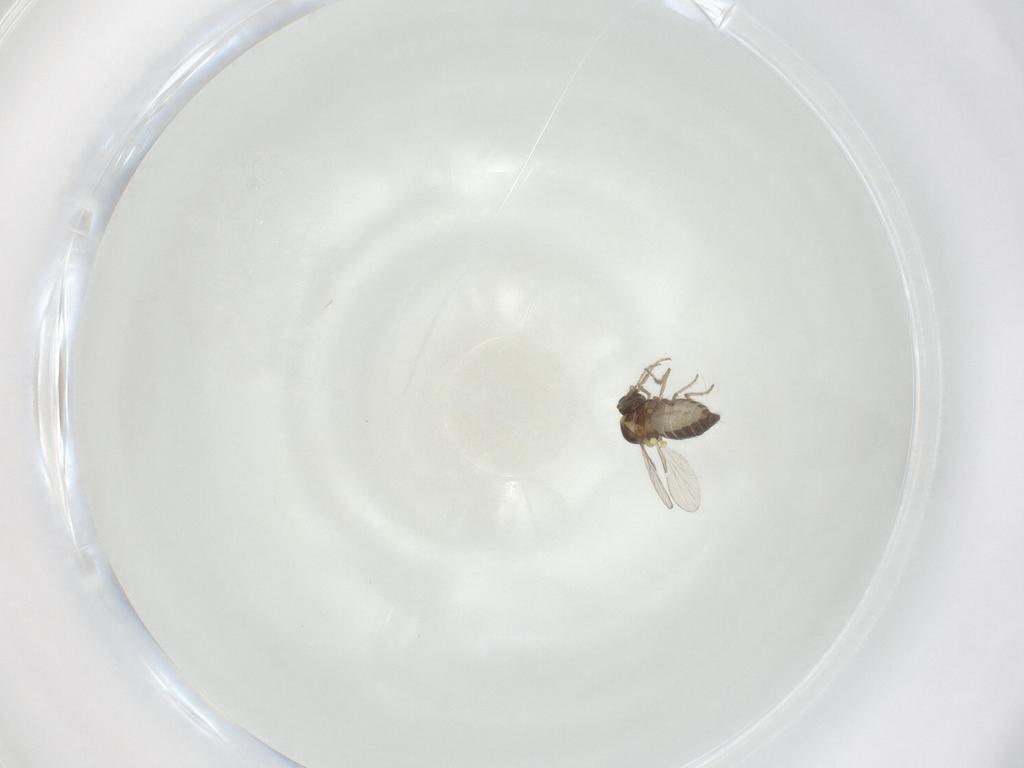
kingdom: Animalia
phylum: Arthropoda
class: Insecta
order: Diptera
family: Ceratopogonidae
